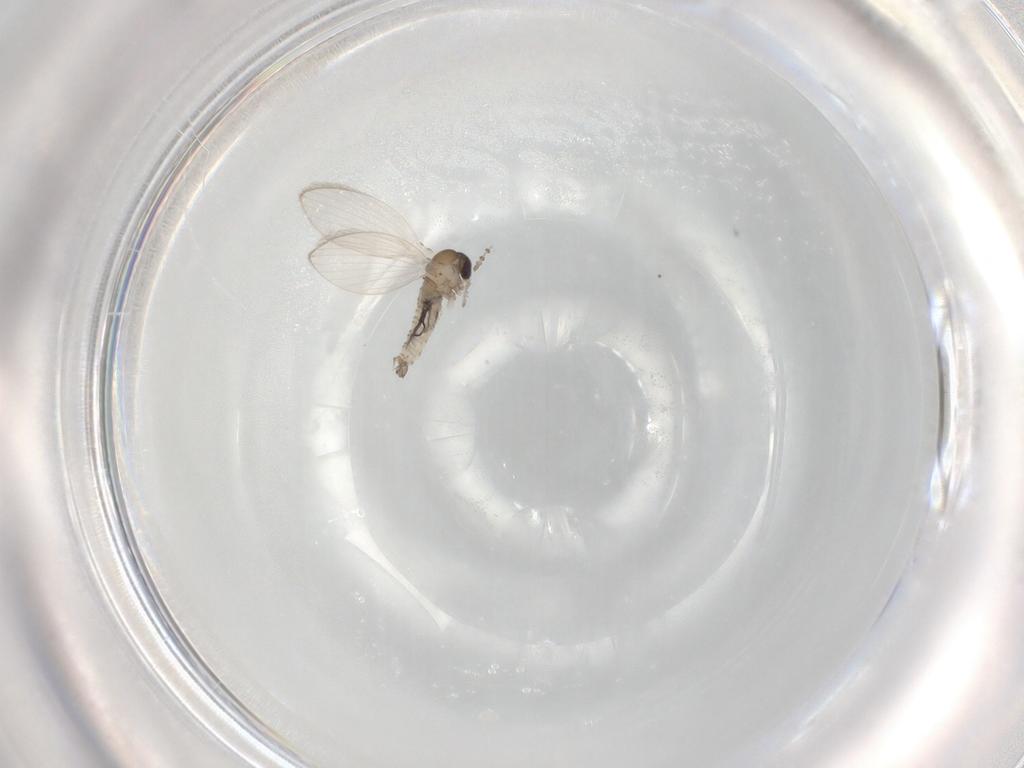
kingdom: Animalia
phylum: Arthropoda
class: Insecta
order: Diptera
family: Psychodidae
